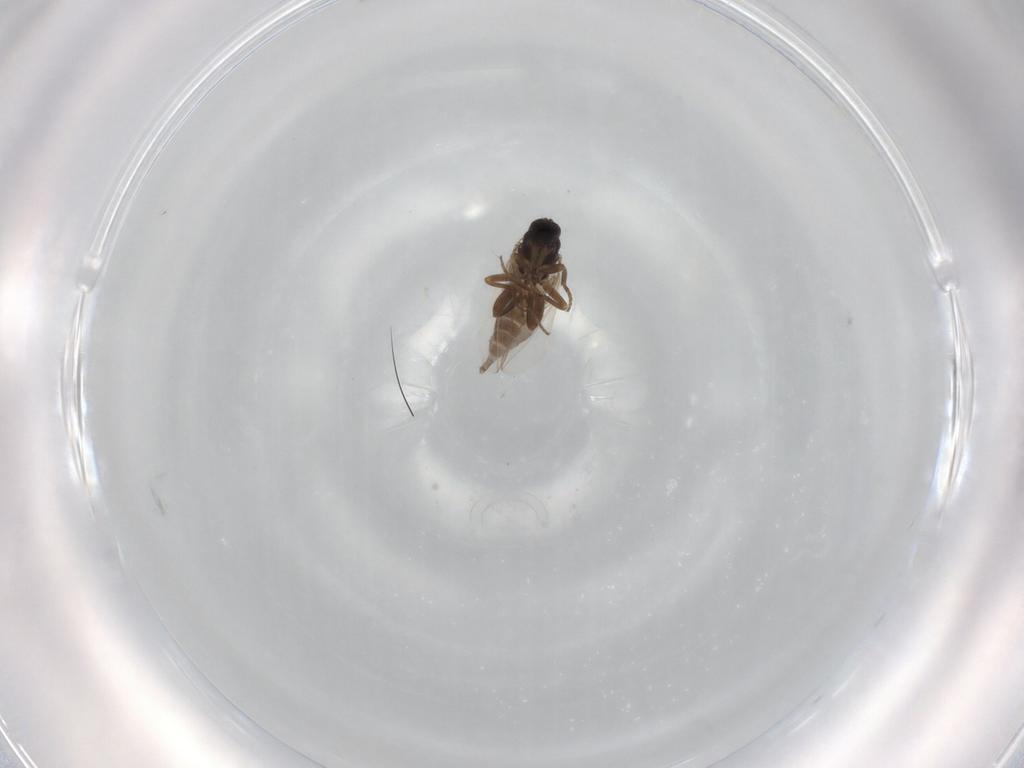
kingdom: Animalia
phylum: Arthropoda
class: Insecta
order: Diptera
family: Hybotidae
